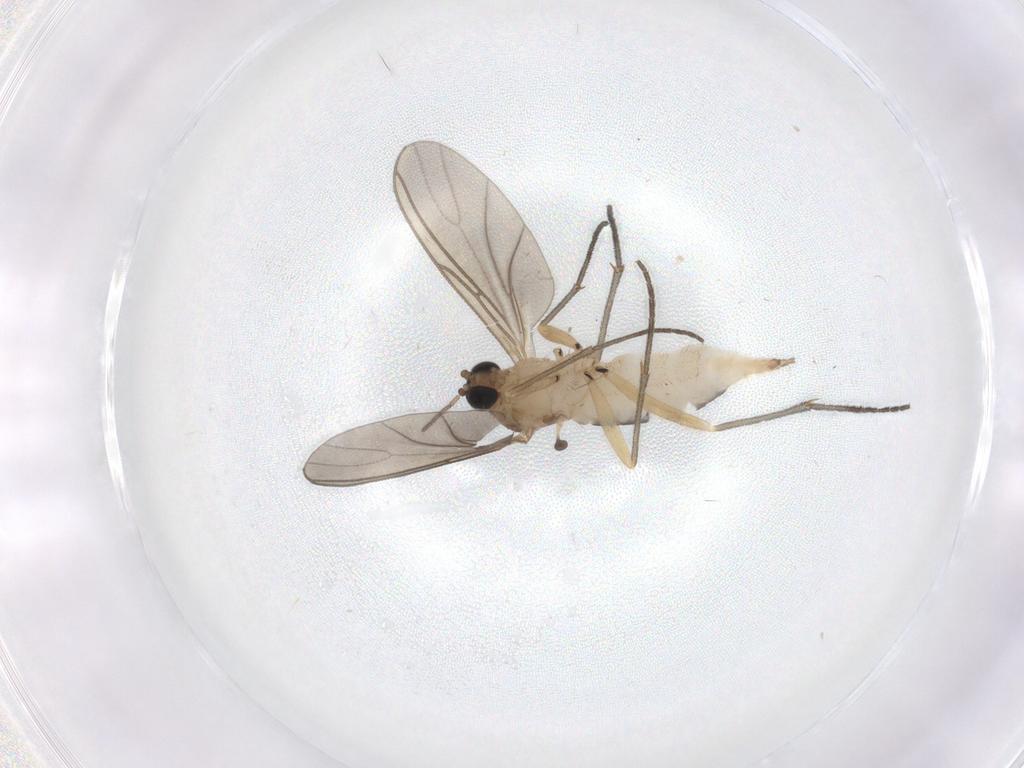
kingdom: Animalia
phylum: Arthropoda
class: Insecta
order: Diptera
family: Sciaridae
